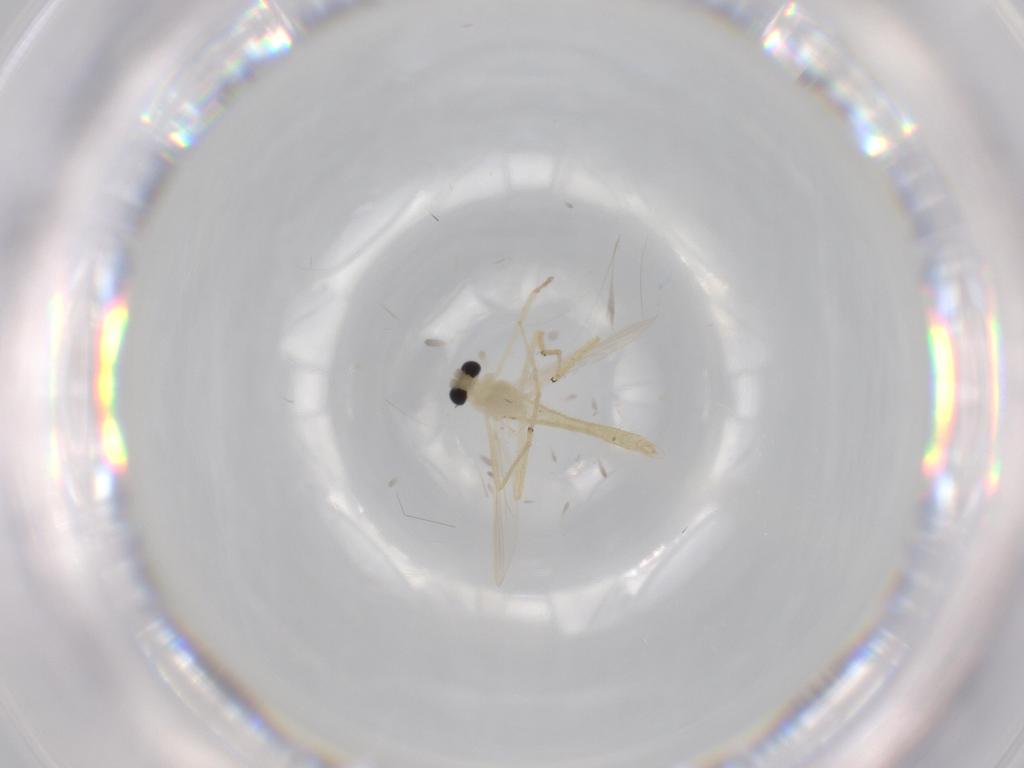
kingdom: Animalia
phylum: Arthropoda
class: Insecta
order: Diptera
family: Chironomidae
